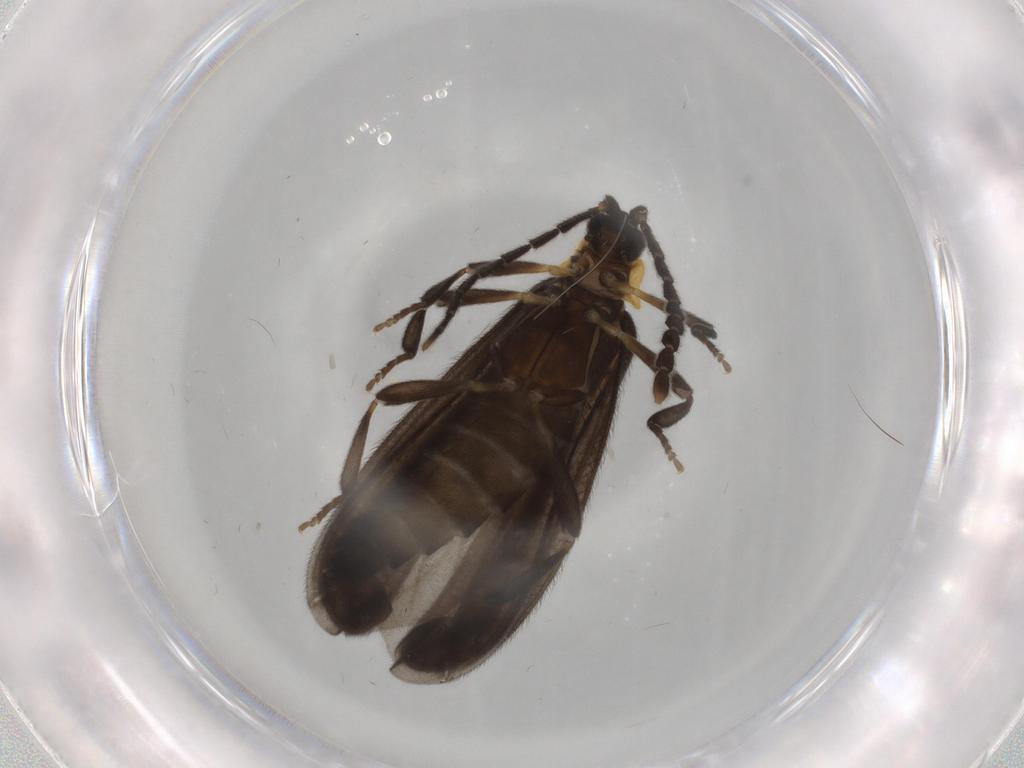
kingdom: Animalia
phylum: Arthropoda
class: Insecta
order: Coleoptera
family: Lycidae
